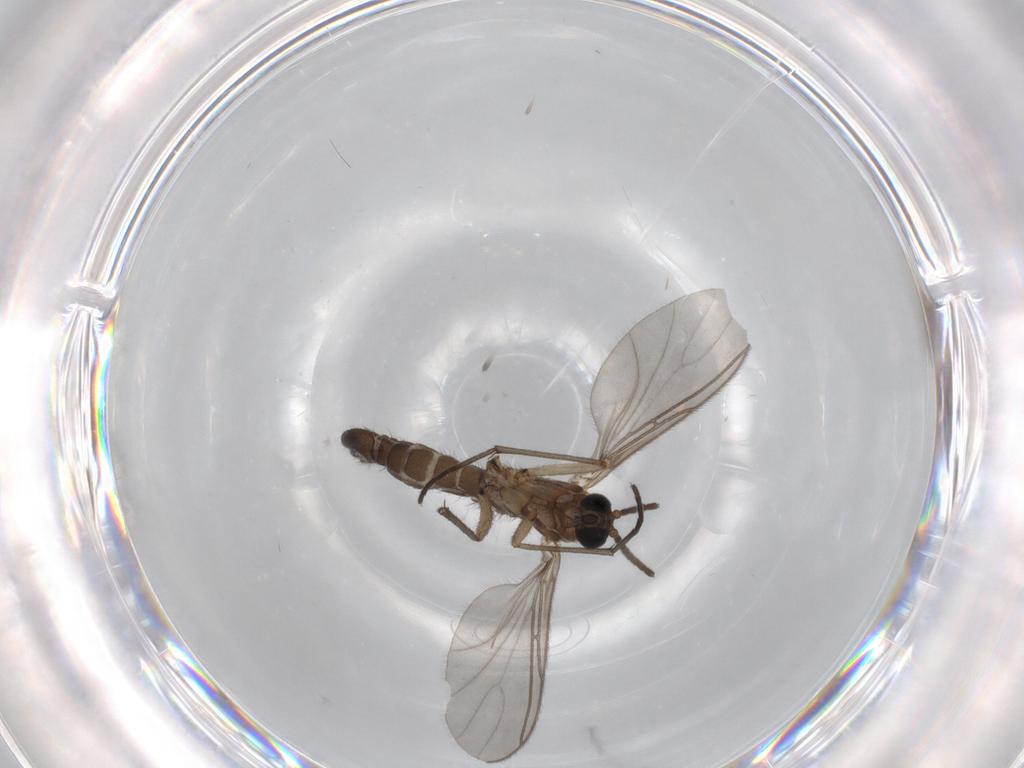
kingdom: Animalia
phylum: Arthropoda
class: Insecta
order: Diptera
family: Sciaridae
